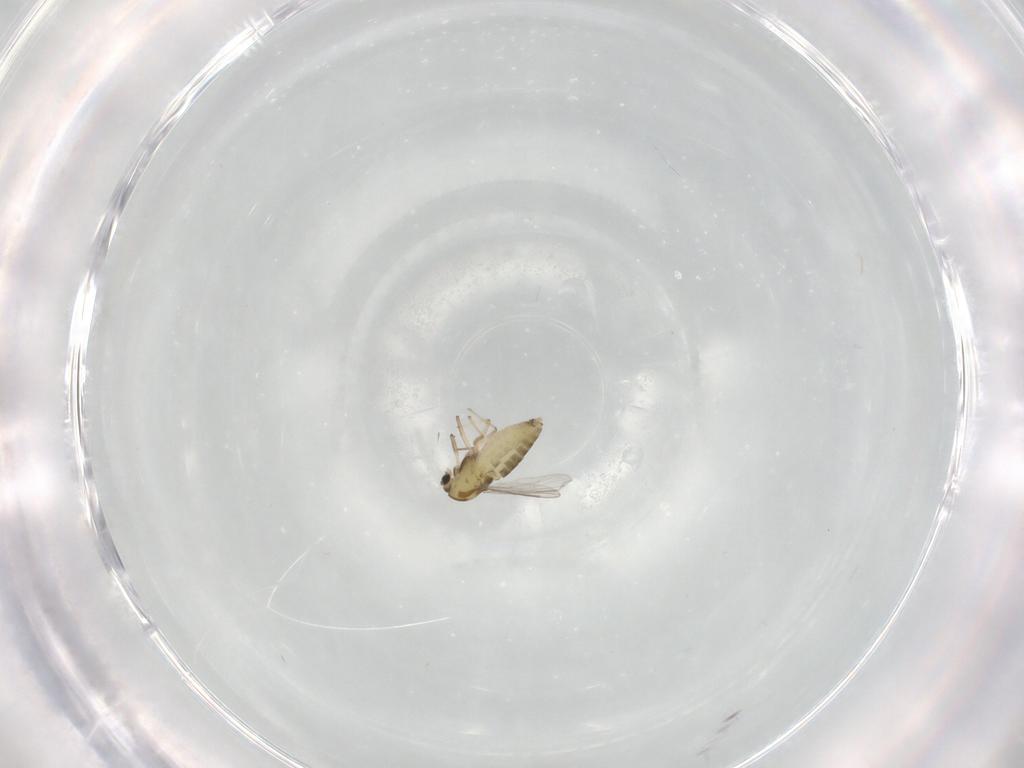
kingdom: Animalia
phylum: Arthropoda
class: Insecta
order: Diptera
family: Chironomidae
